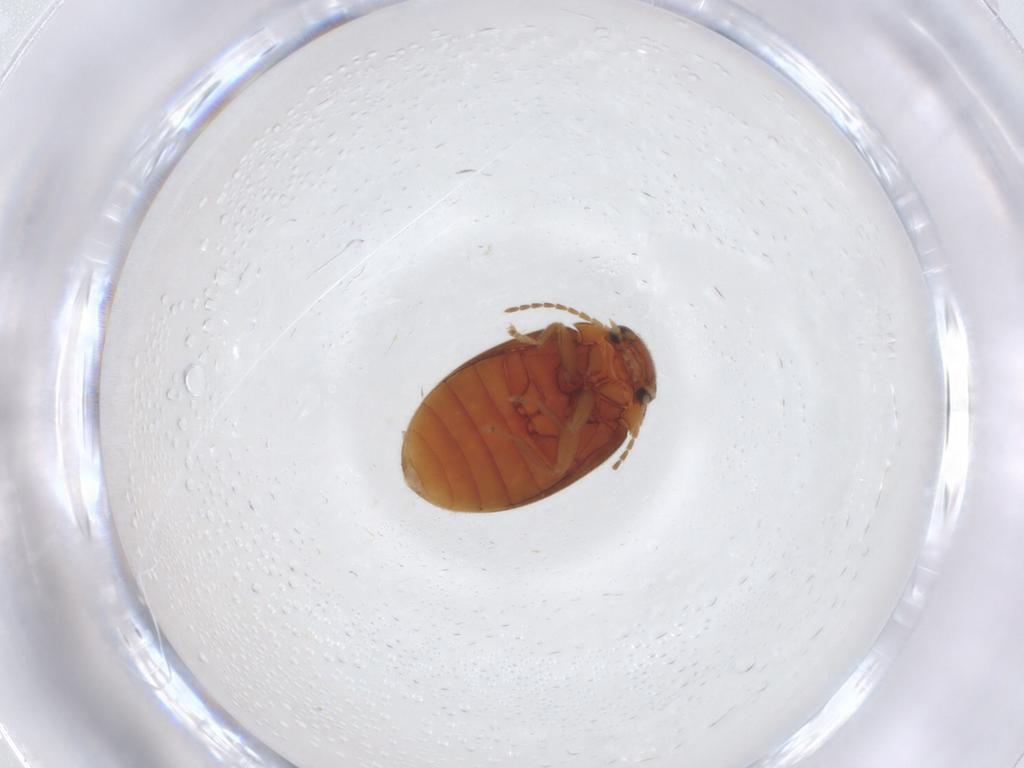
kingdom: Animalia
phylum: Arthropoda
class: Insecta
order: Coleoptera
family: Scirtidae
